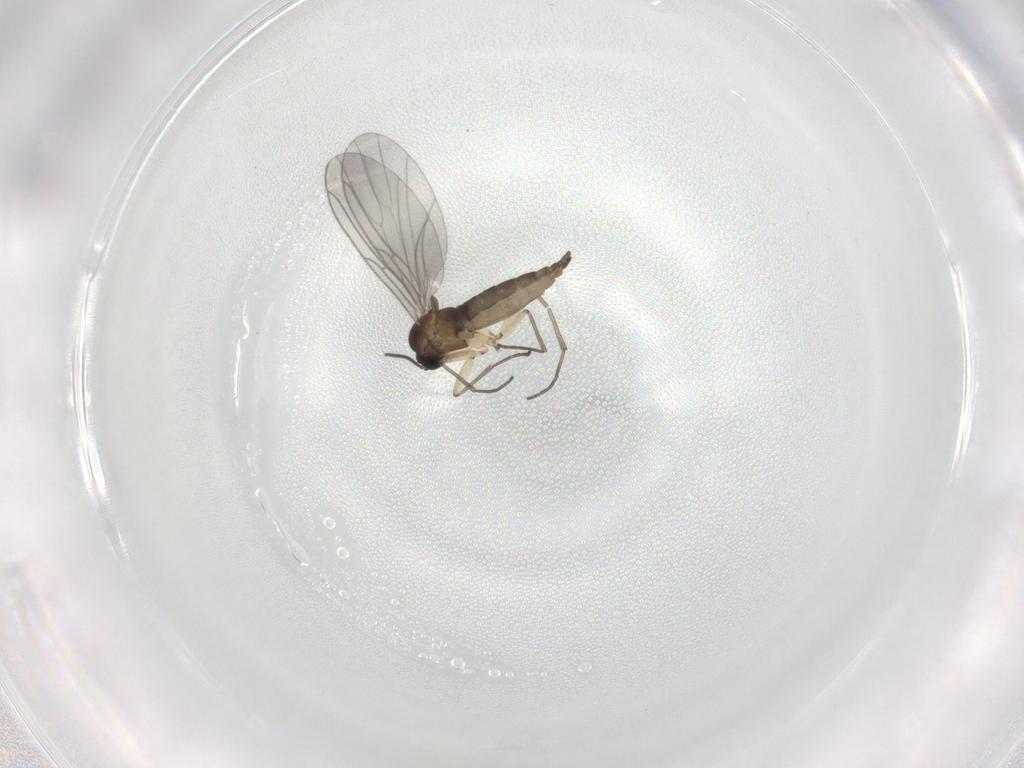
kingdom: Animalia
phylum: Arthropoda
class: Insecta
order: Diptera
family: Sciaridae
